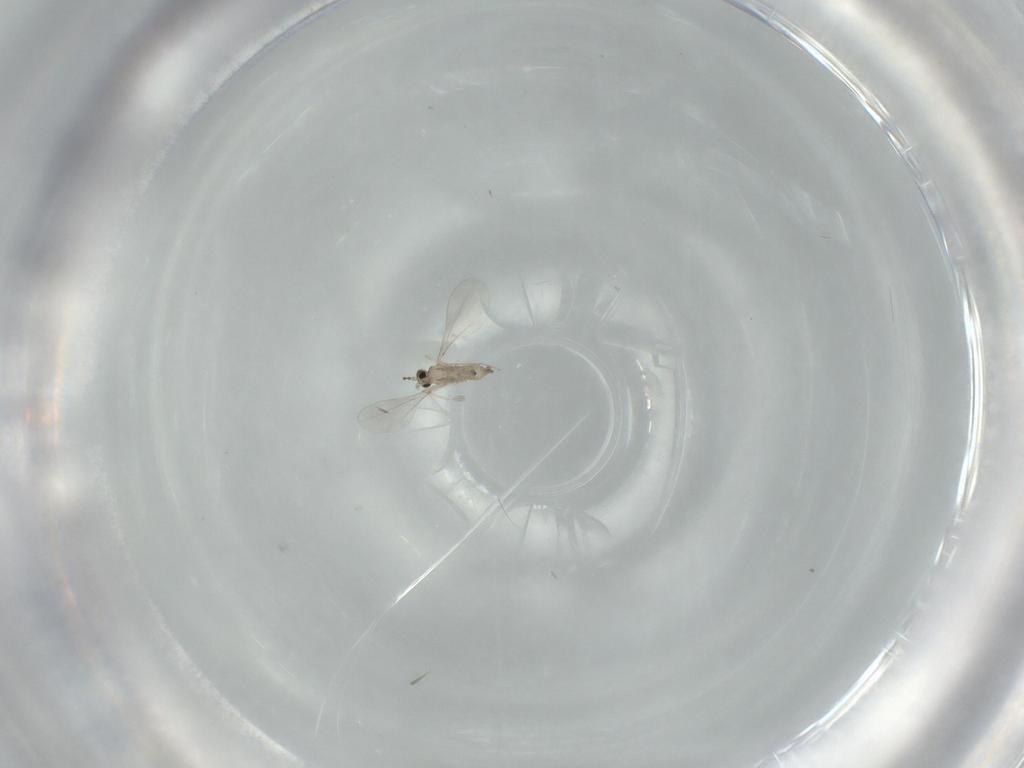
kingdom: Animalia
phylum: Arthropoda
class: Insecta
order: Diptera
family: Cecidomyiidae
